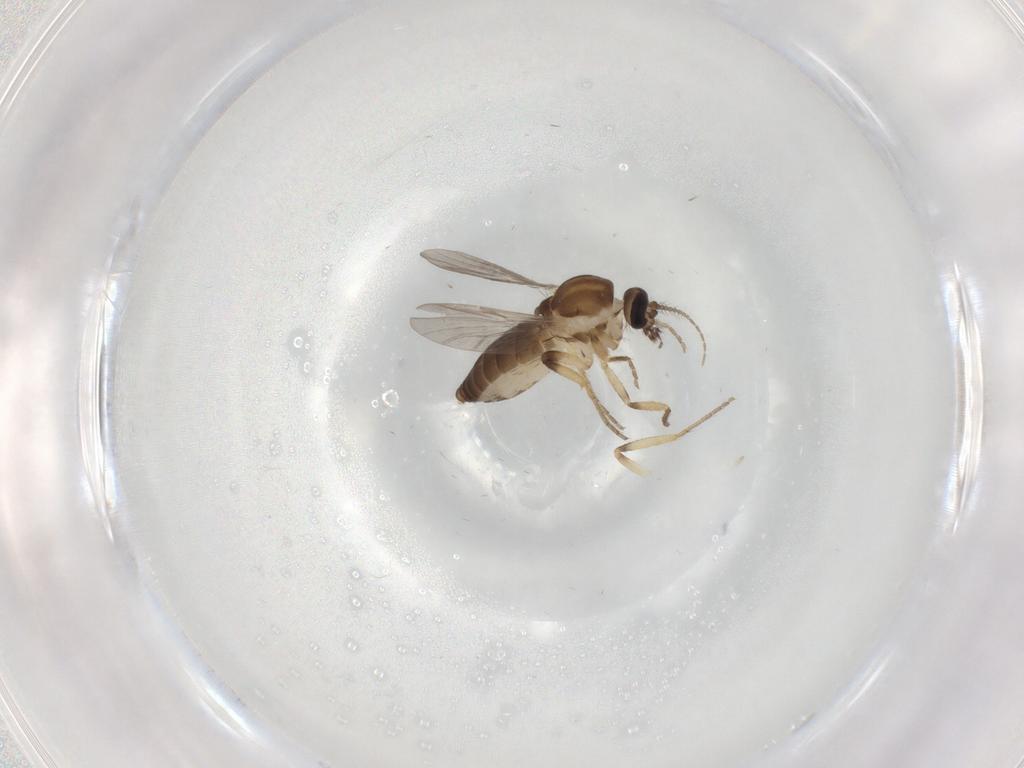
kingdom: Animalia
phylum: Arthropoda
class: Insecta
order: Diptera
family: Ceratopogonidae
